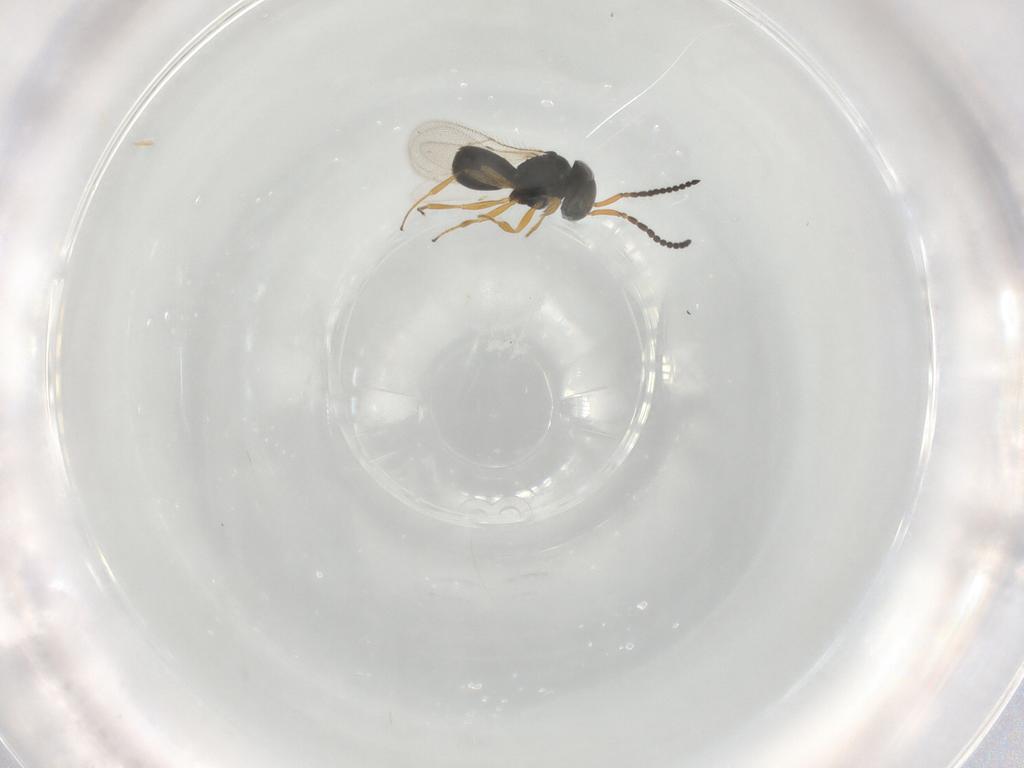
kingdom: Animalia
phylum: Arthropoda
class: Insecta
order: Hymenoptera
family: Scelionidae
